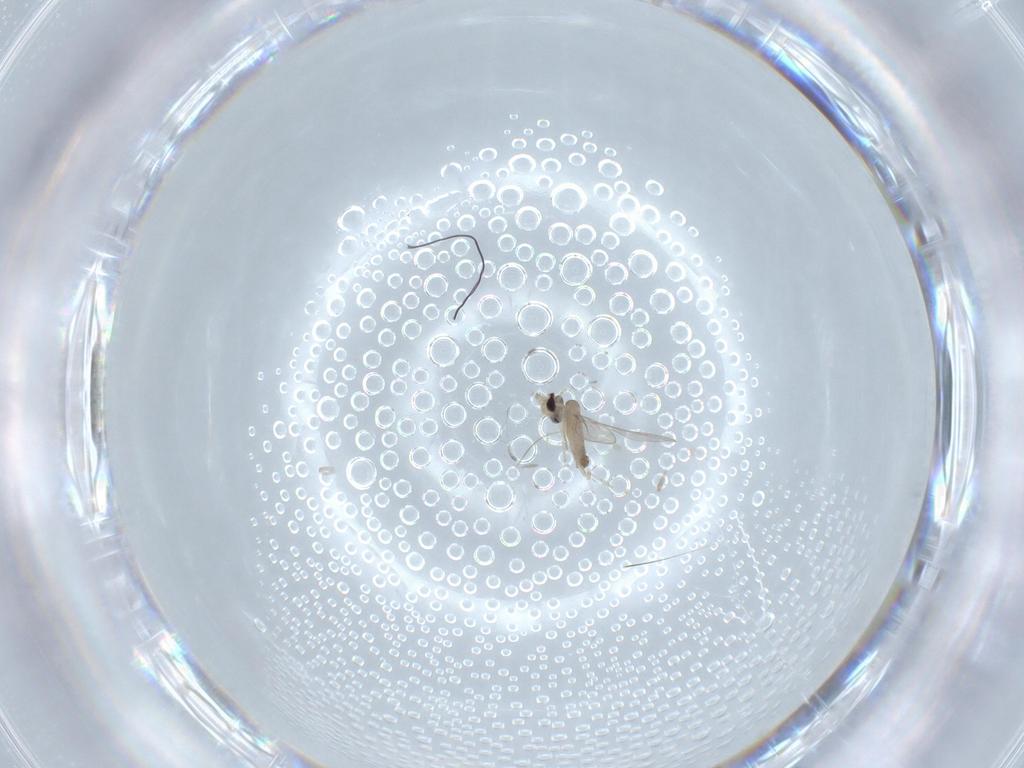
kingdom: Animalia
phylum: Arthropoda
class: Insecta
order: Diptera
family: Cecidomyiidae
